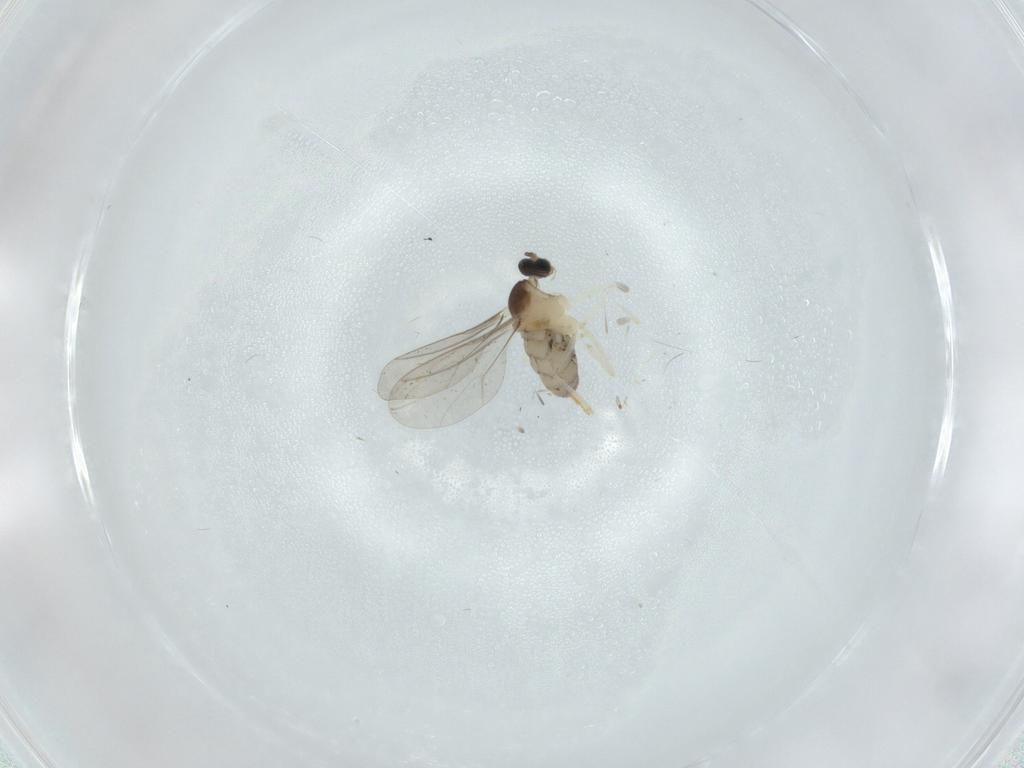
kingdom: Animalia
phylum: Arthropoda
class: Insecta
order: Diptera
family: Cecidomyiidae
